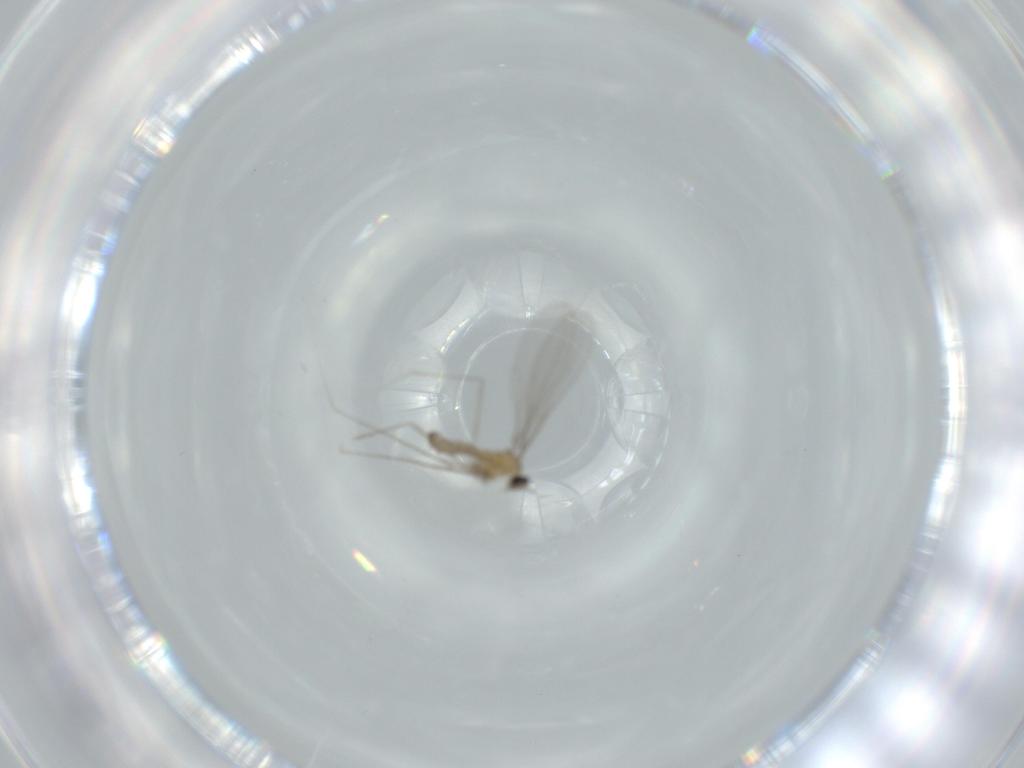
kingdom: Animalia
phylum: Arthropoda
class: Insecta
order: Diptera
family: Cecidomyiidae
